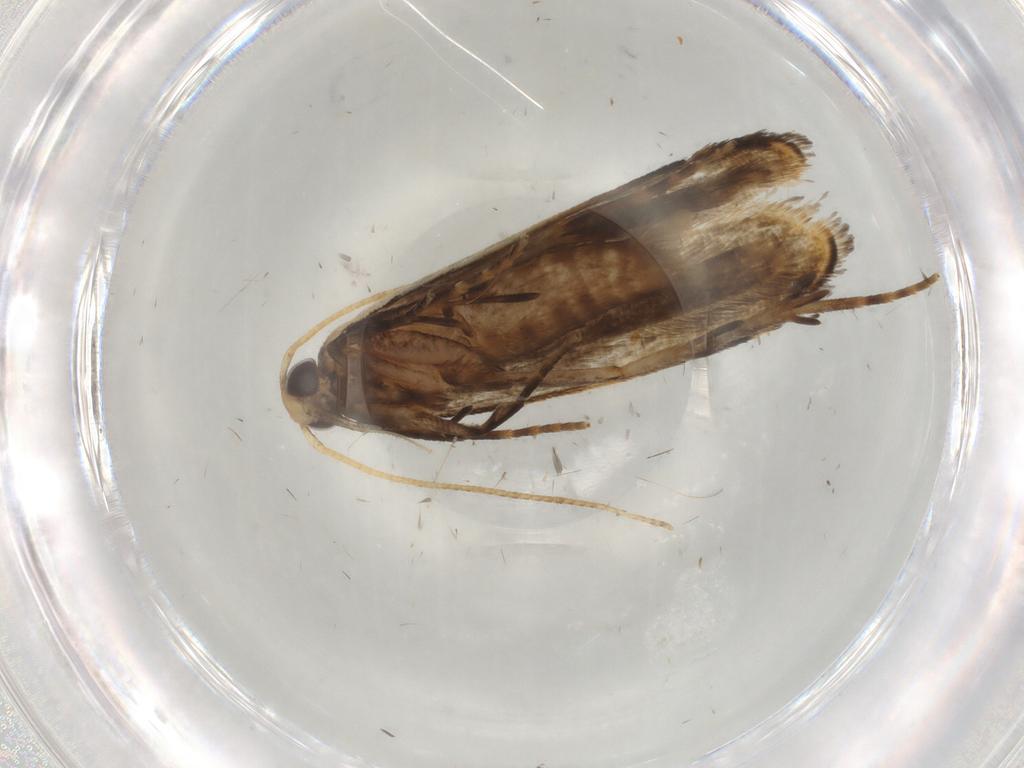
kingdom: Animalia
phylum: Arthropoda
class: Insecta
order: Lepidoptera
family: Gelechiidae
